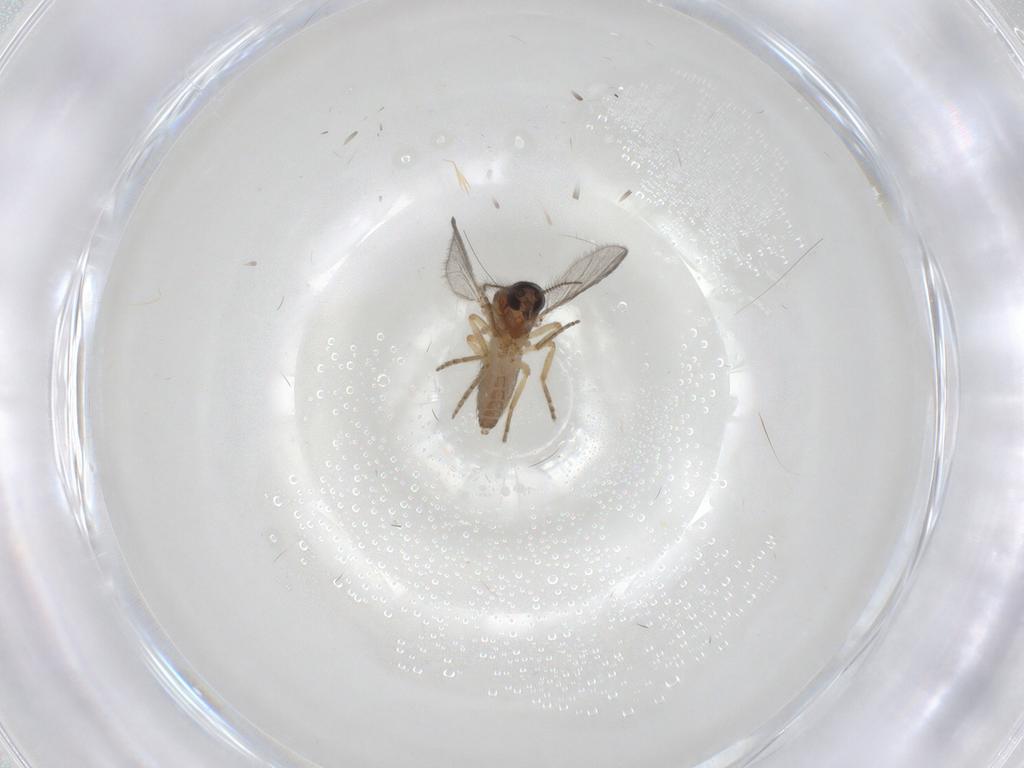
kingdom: Animalia
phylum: Arthropoda
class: Insecta
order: Diptera
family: Ceratopogonidae
